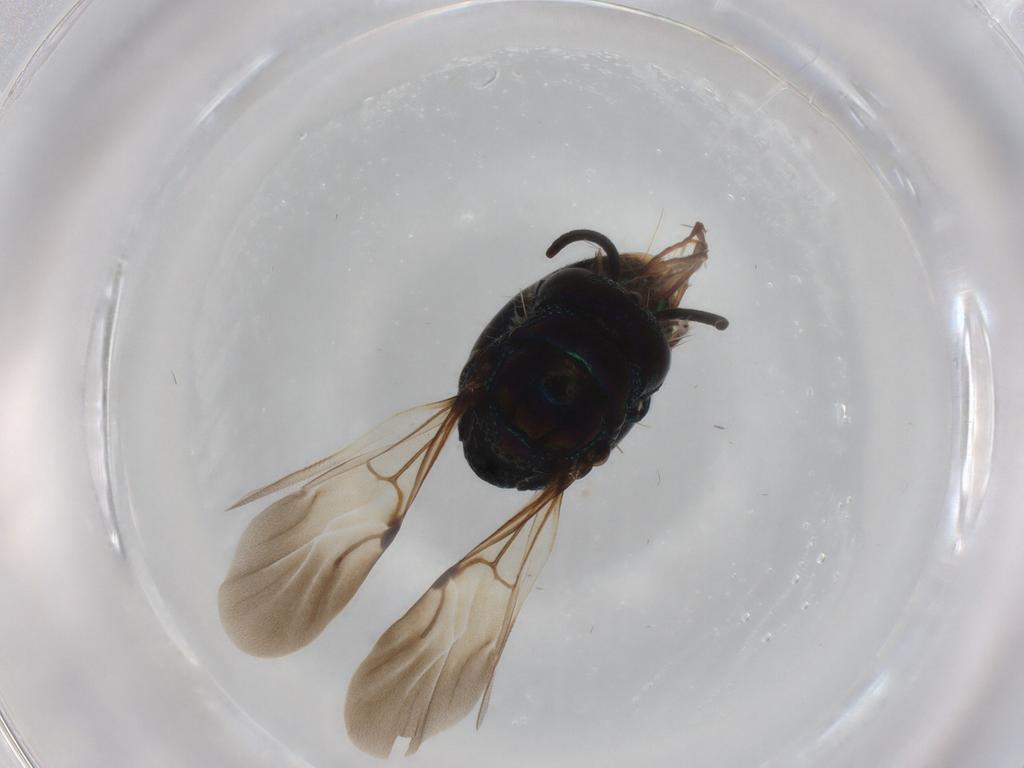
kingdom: Animalia
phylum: Arthropoda
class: Insecta
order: Hymenoptera
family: Chrysididae
